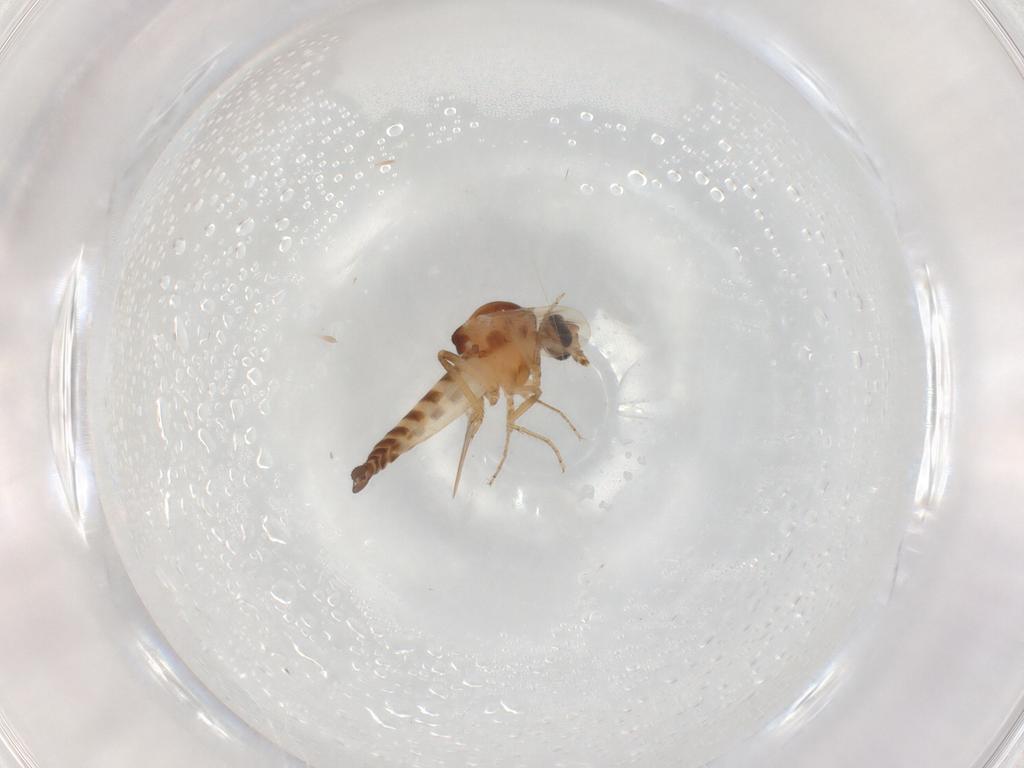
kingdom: Animalia
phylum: Arthropoda
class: Insecta
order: Diptera
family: Ceratopogonidae
